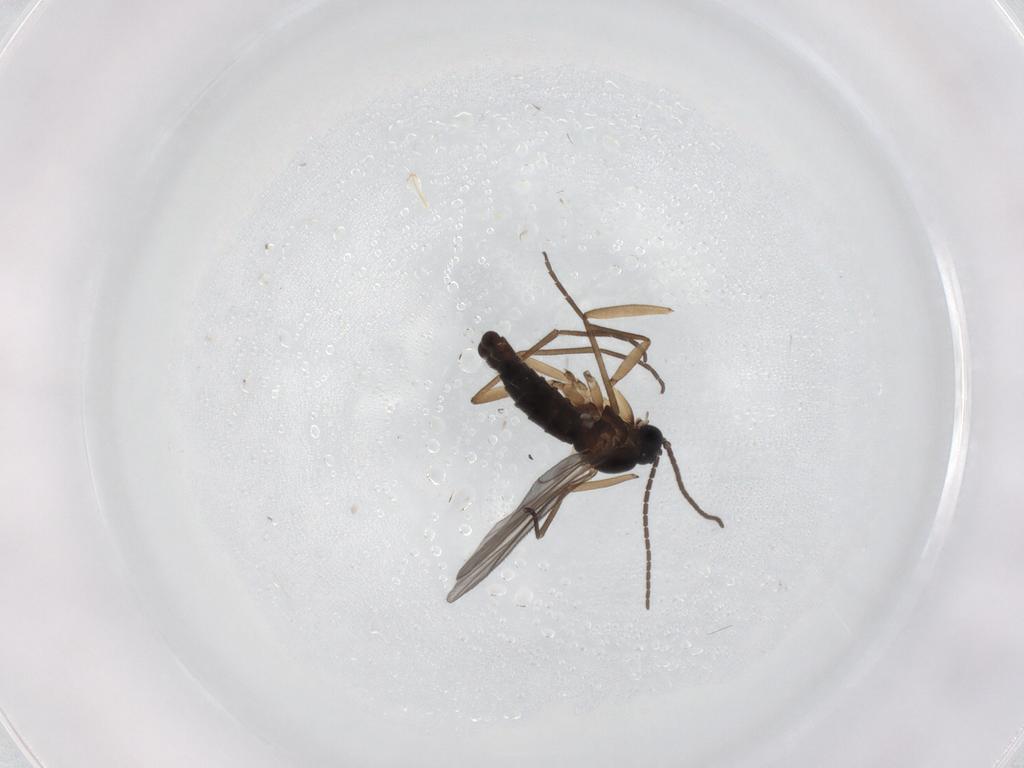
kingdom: Animalia
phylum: Arthropoda
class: Insecta
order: Diptera
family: Sciaridae
